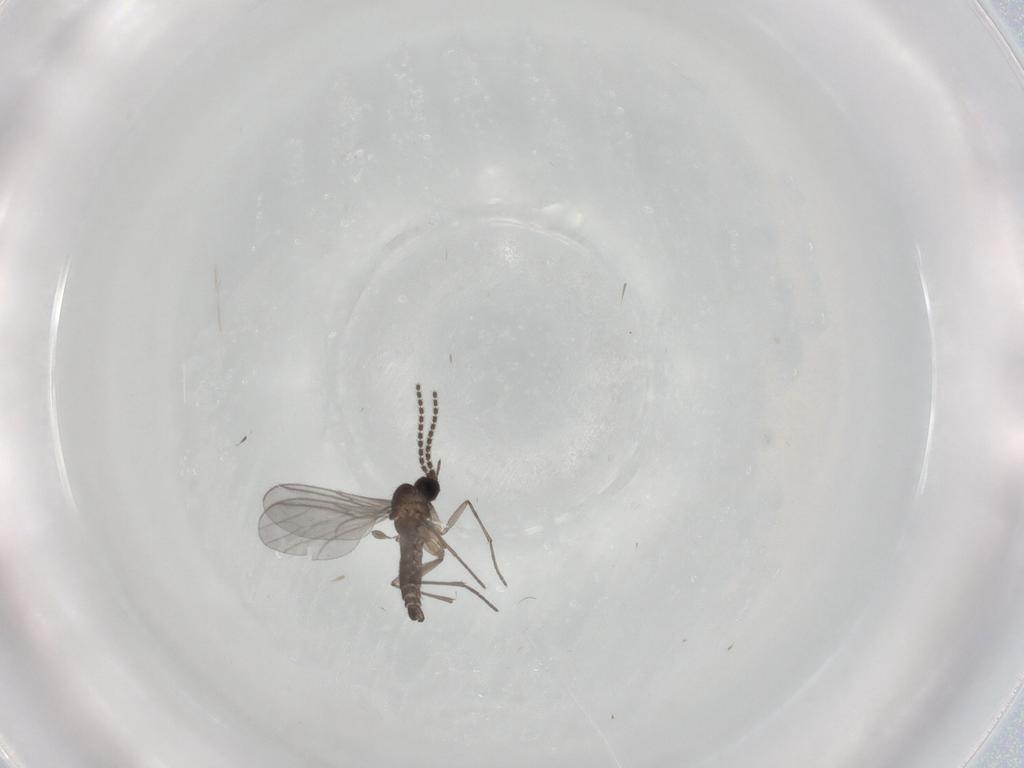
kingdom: Animalia
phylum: Arthropoda
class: Insecta
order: Diptera
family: Sciaridae
